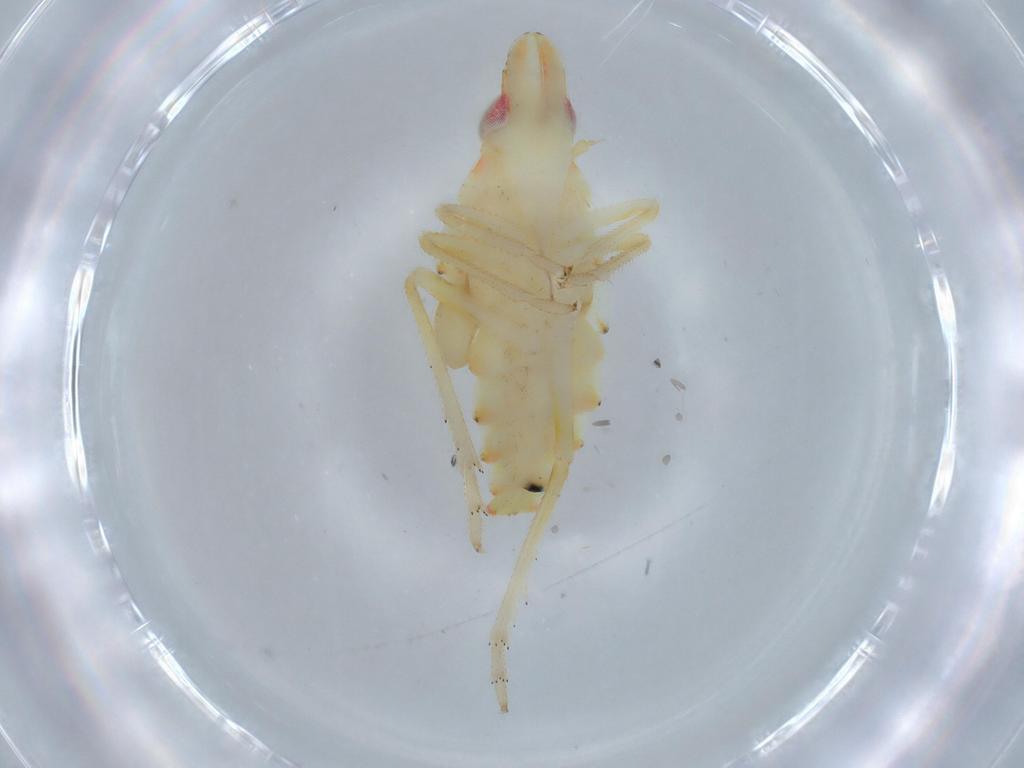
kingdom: Animalia
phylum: Arthropoda
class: Insecta
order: Hemiptera
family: Tropiduchidae
